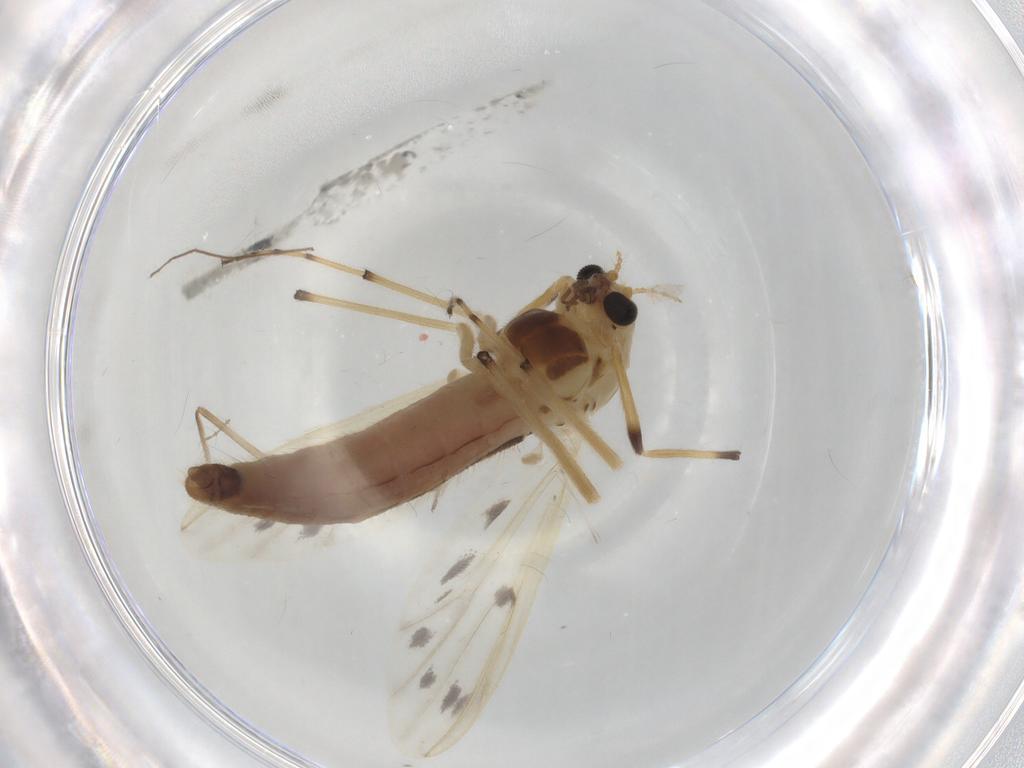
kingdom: Animalia
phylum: Arthropoda
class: Insecta
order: Diptera
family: Chironomidae
